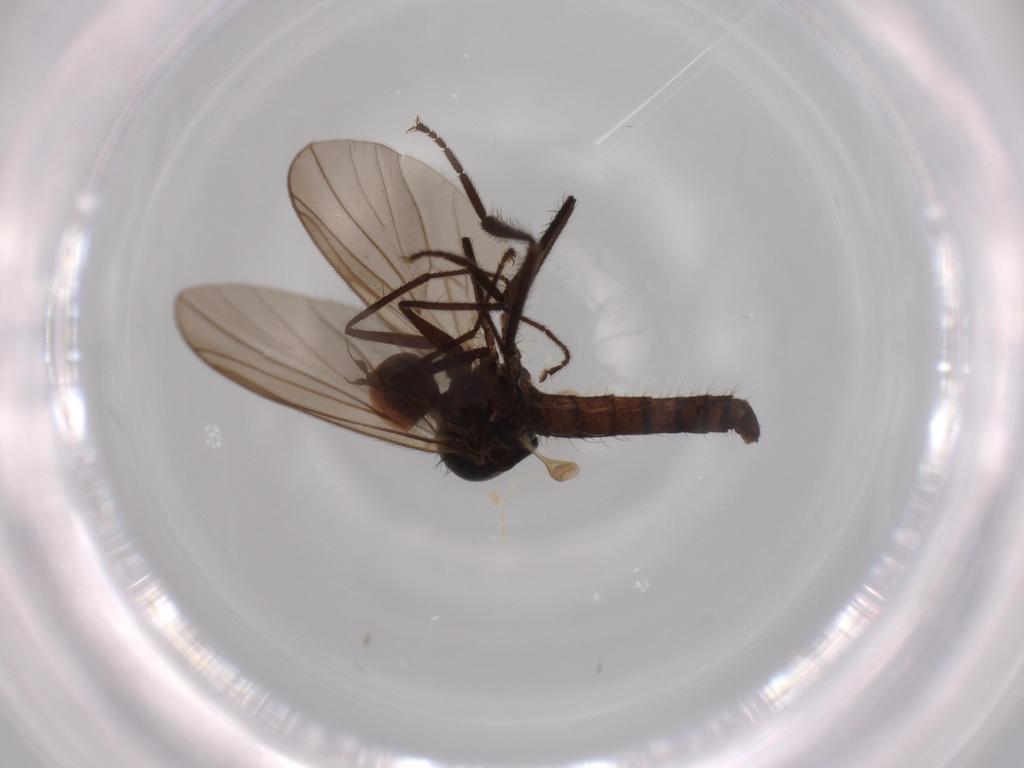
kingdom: Animalia
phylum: Arthropoda
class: Insecta
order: Diptera
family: Hybotidae
